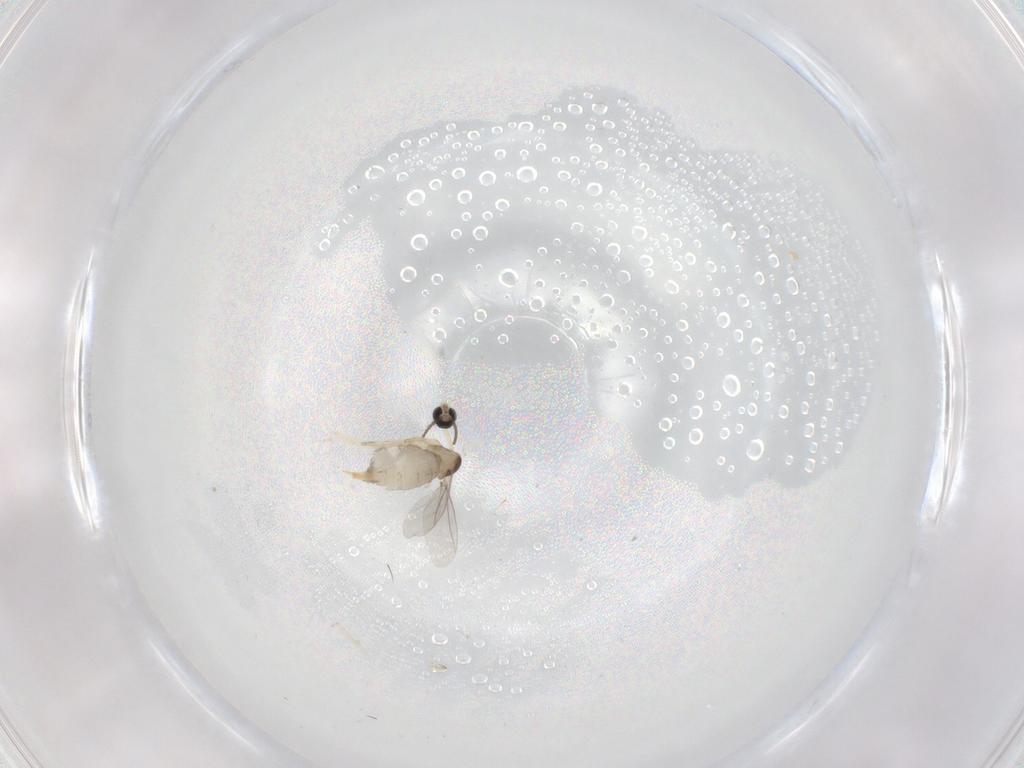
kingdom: Animalia
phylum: Arthropoda
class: Insecta
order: Diptera
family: Cecidomyiidae
